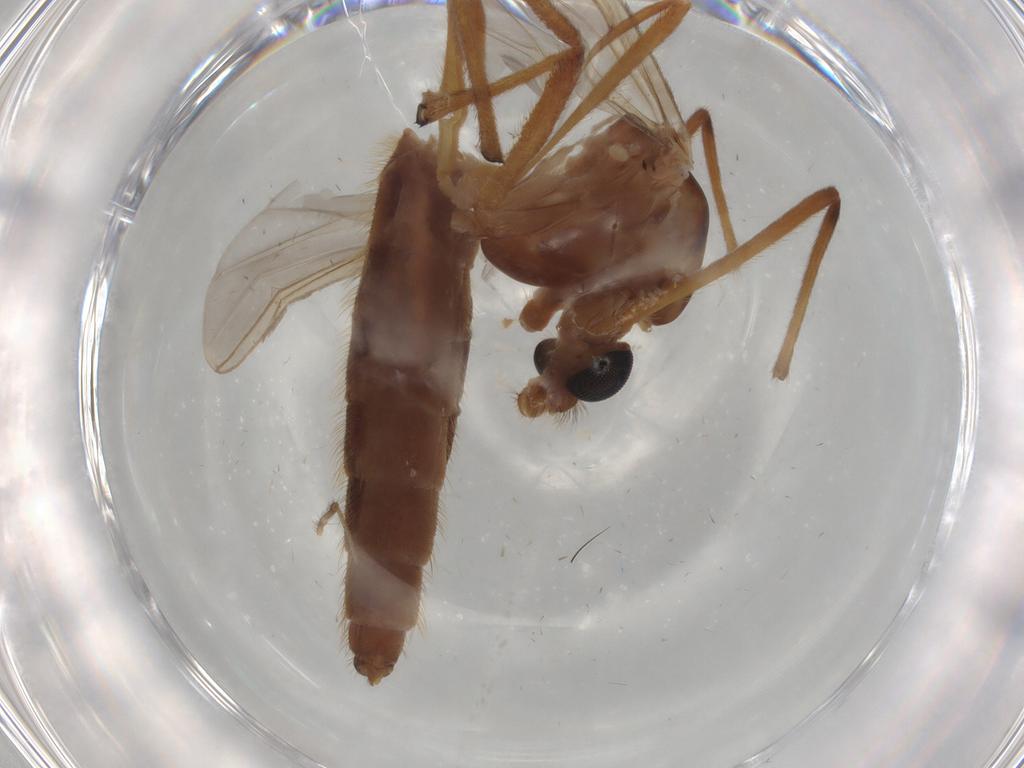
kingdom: Animalia
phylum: Arthropoda
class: Insecta
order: Diptera
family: Chironomidae
